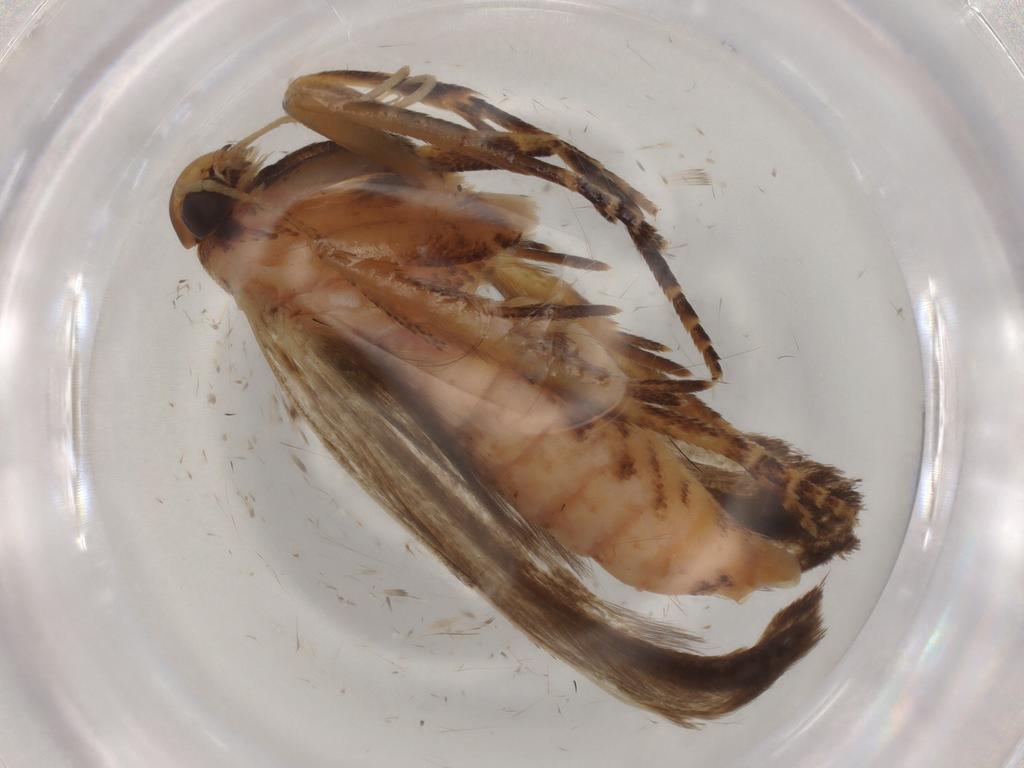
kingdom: Animalia
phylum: Arthropoda
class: Insecta
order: Lepidoptera
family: Gelechiidae
